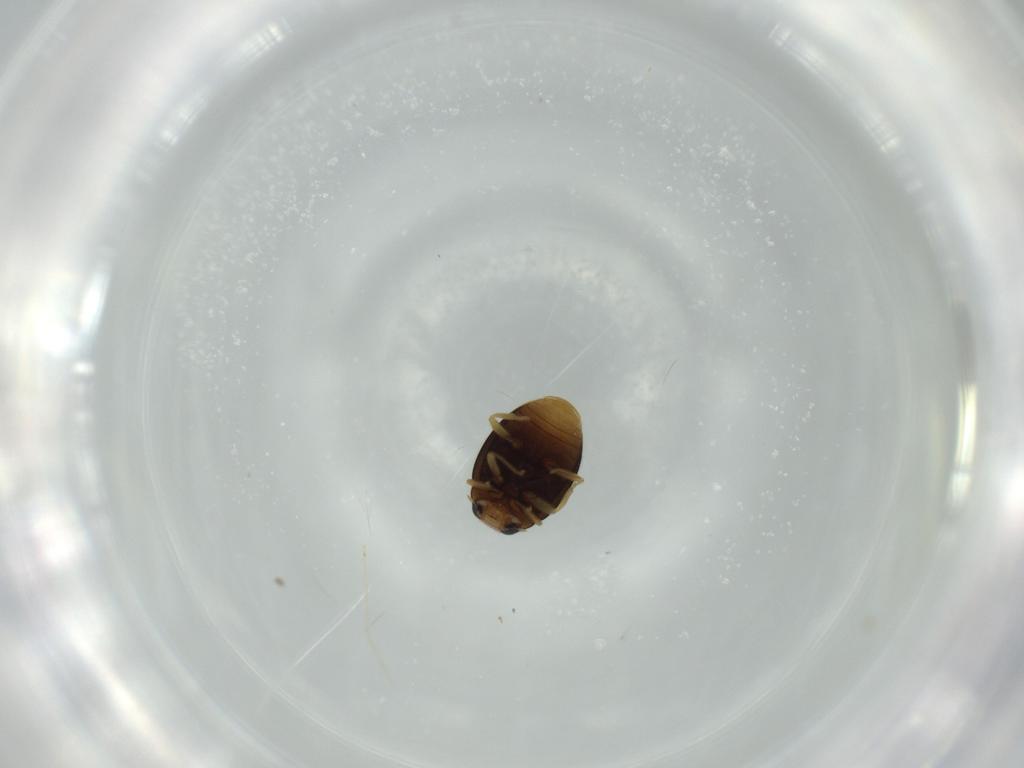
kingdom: Animalia
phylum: Arthropoda
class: Insecta
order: Coleoptera
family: Coccinellidae
